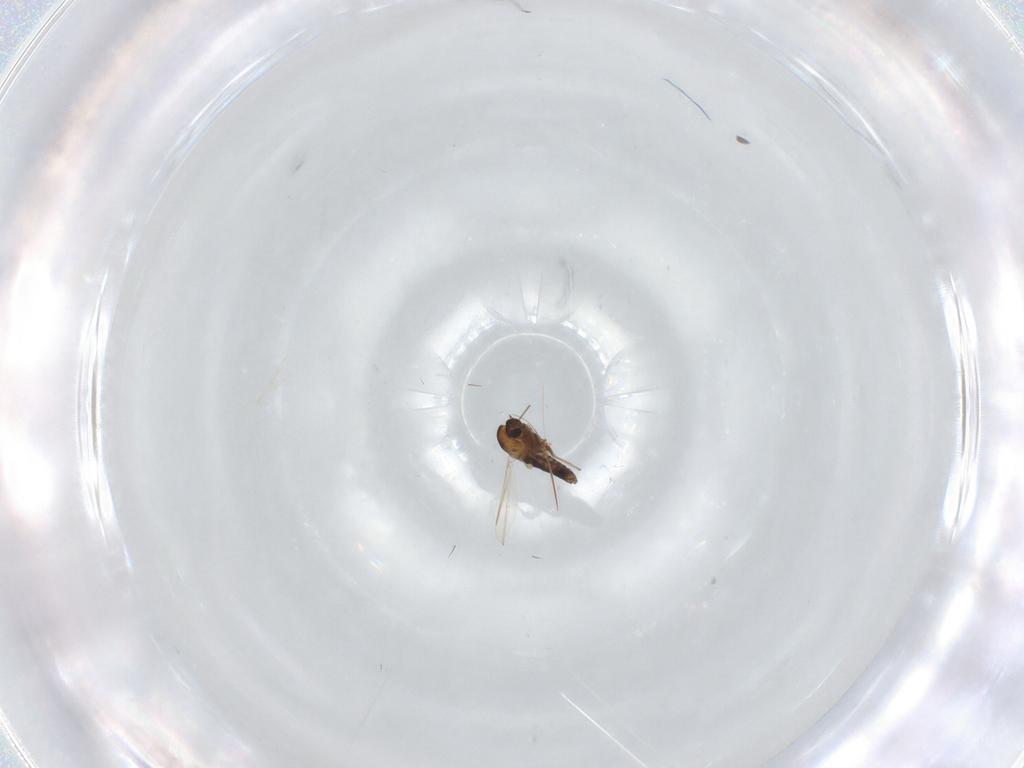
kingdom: Animalia
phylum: Arthropoda
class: Insecta
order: Diptera
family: Chironomidae
